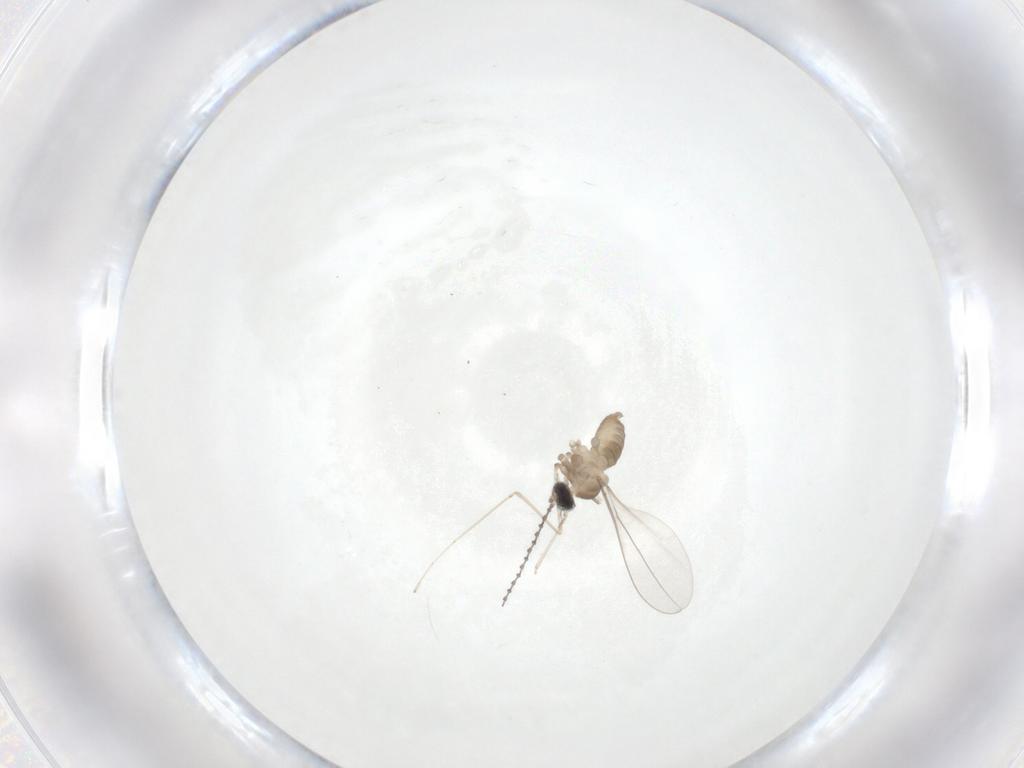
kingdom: Animalia
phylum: Arthropoda
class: Insecta
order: Diptera
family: Cecidomyiidae
